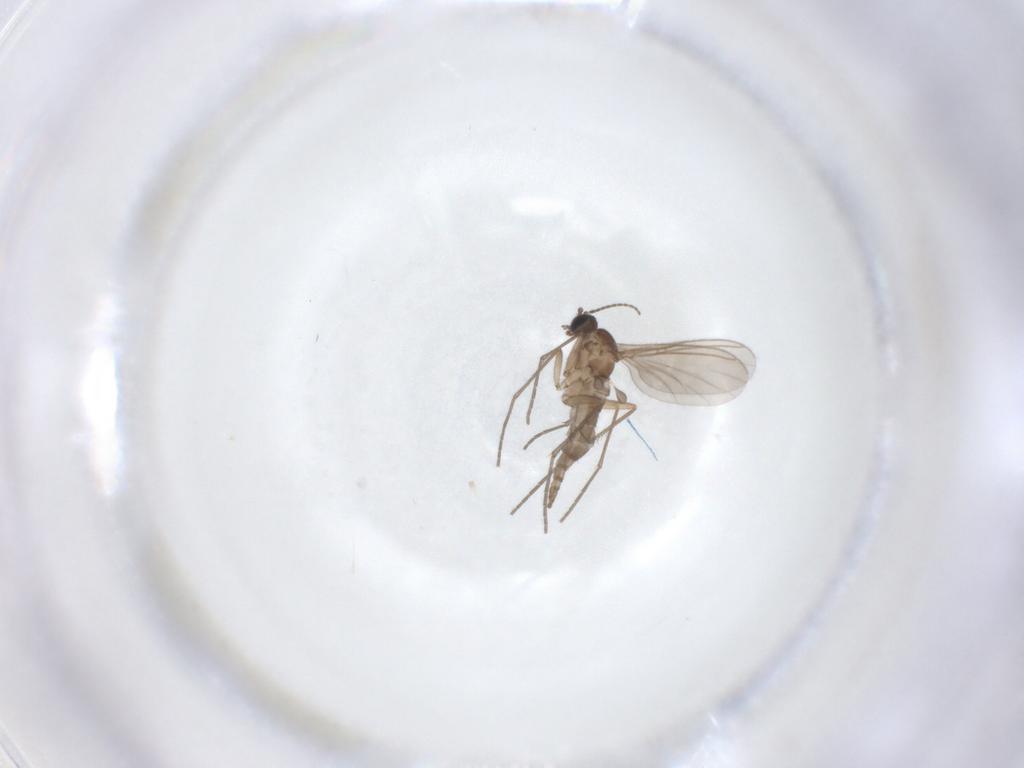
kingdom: Animalia
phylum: Arthropoda
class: Insecta
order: Diptera
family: Sciaridae
